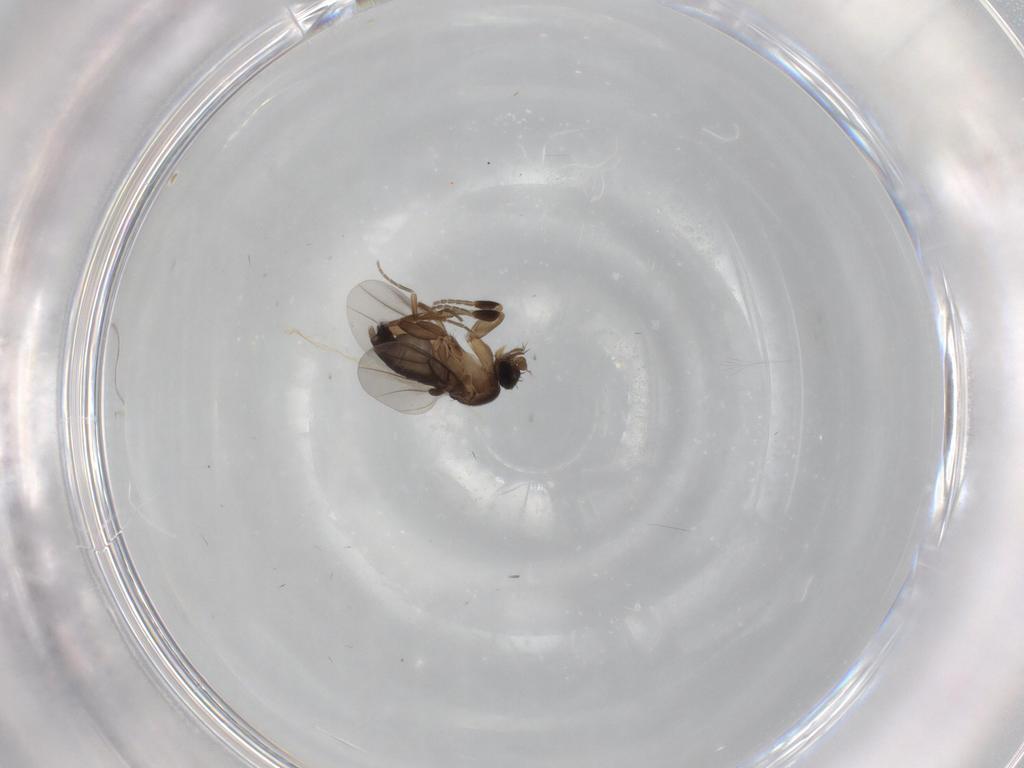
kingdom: Animalia
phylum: Arthropoda
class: Insecta
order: Diptera
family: Phoridae
